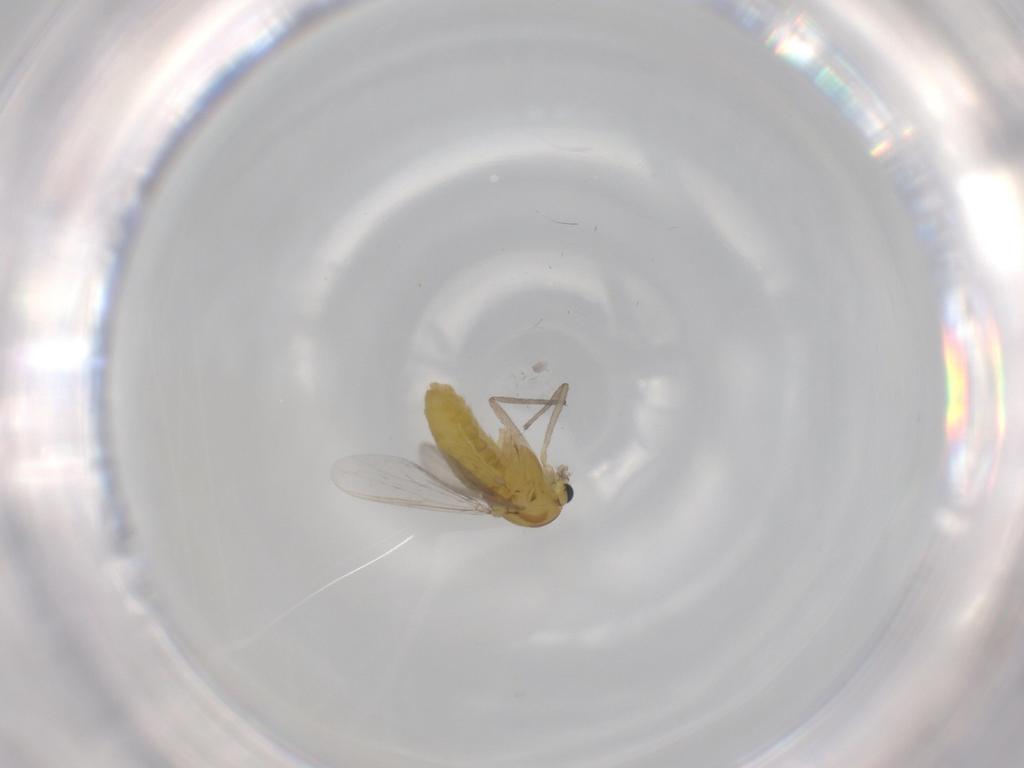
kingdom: Animalia
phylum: Arthropoda
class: Insecta
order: Diptera
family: Chironomidae
